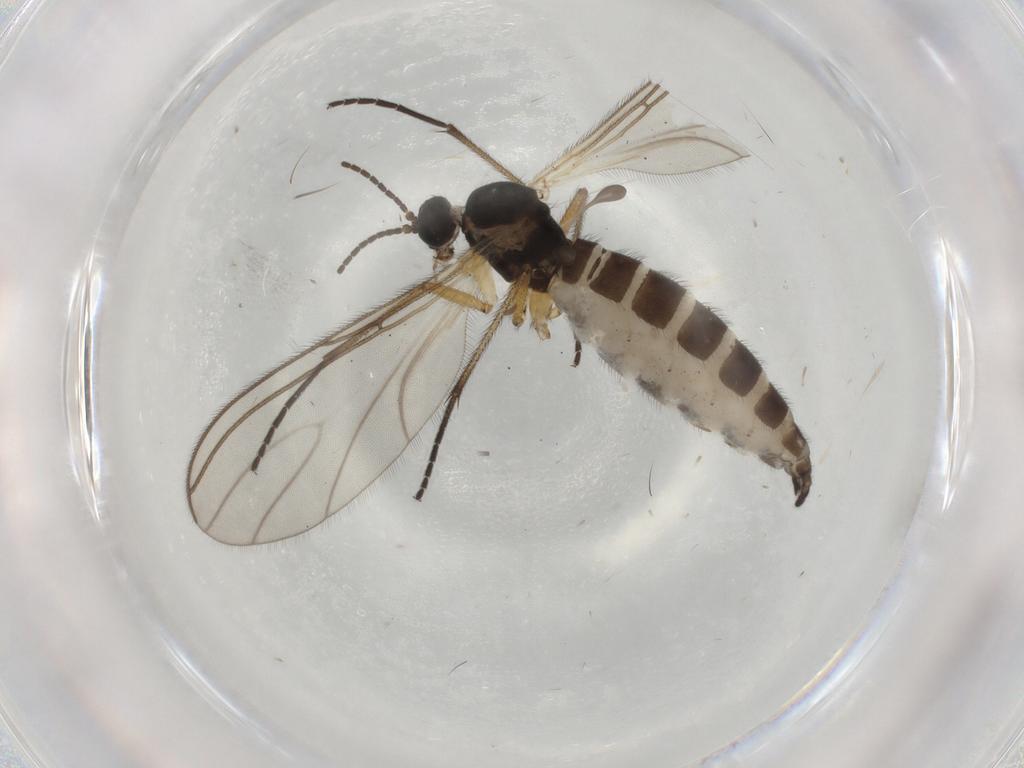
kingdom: Animalia
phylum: Arthropoda
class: Insecta
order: Diptera
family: Sciaridae
